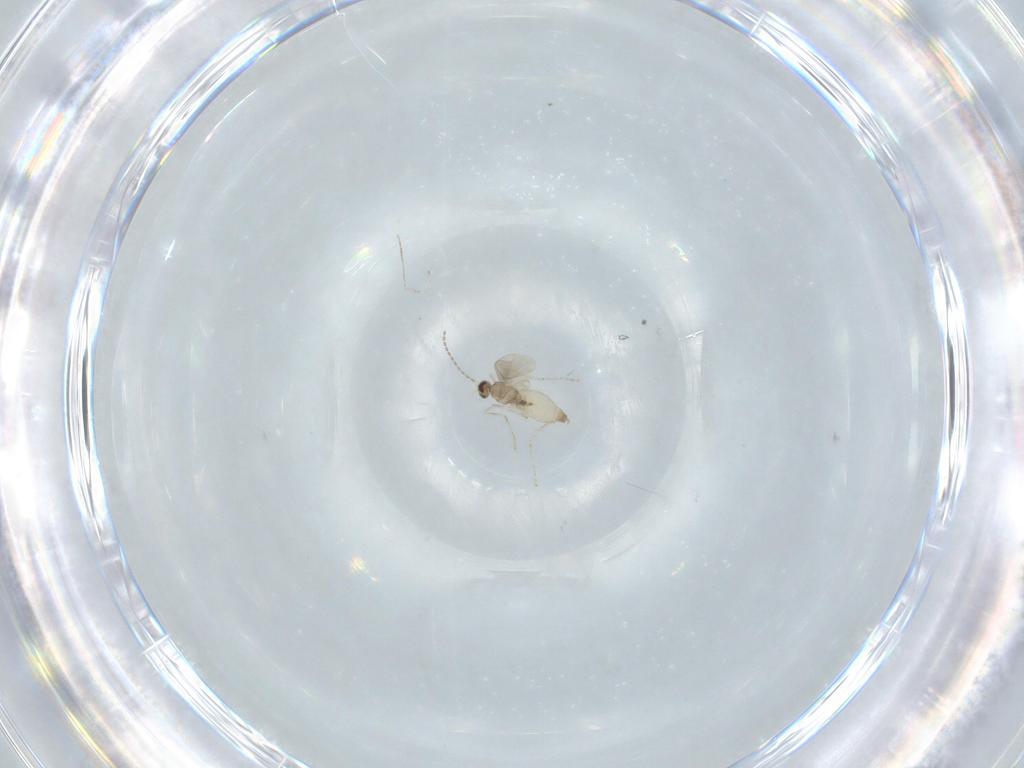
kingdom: Animalia
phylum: Arthropoda
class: Insecta
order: Diptera
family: Cecidomyiidae
